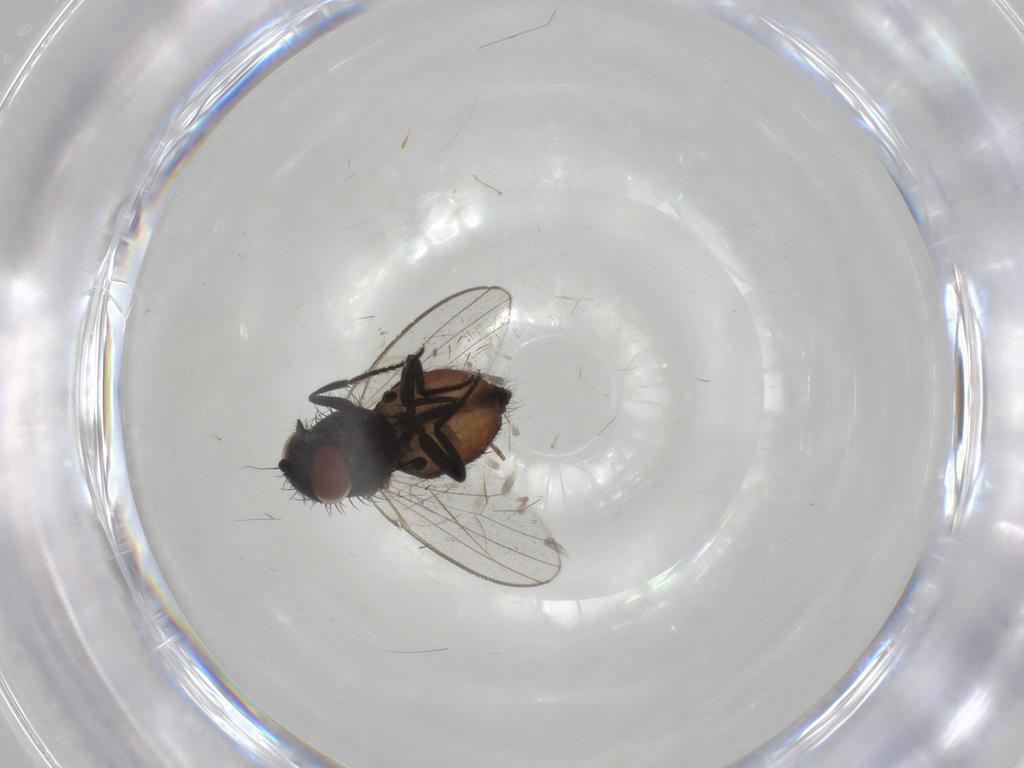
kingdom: Animalia
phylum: Arthropoda
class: Insecta
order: Diptera
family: Milichiidae
